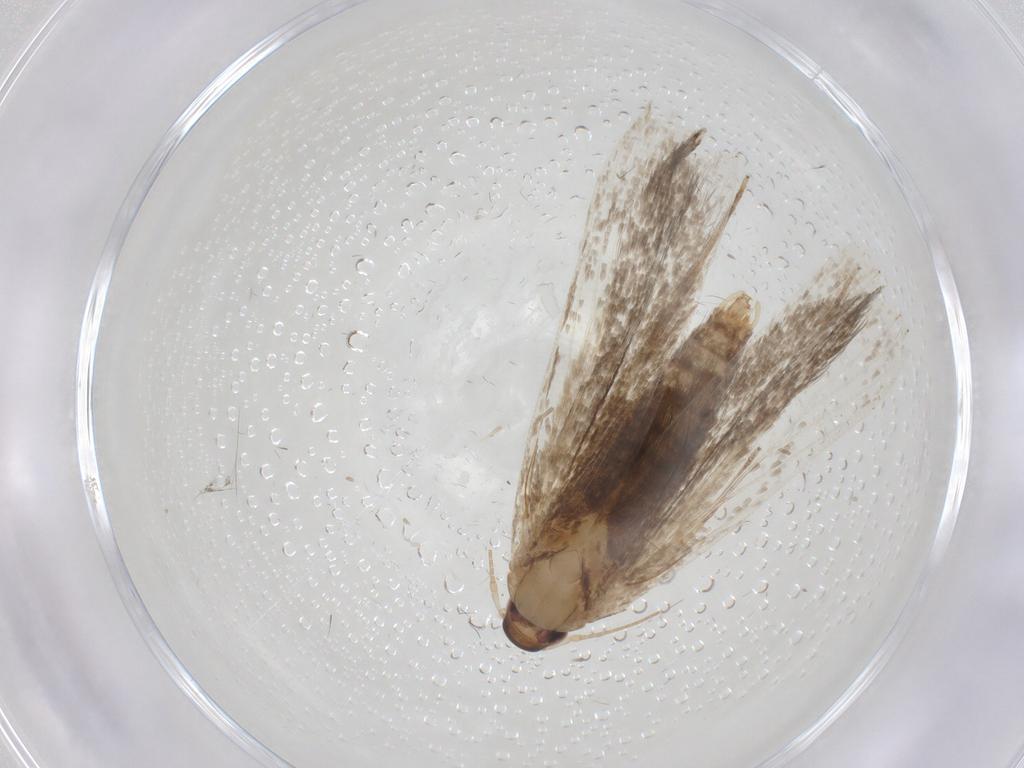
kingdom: Animalia
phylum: Arthropoda
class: Insecta
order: Lepidoptera
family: Gelechiidae
